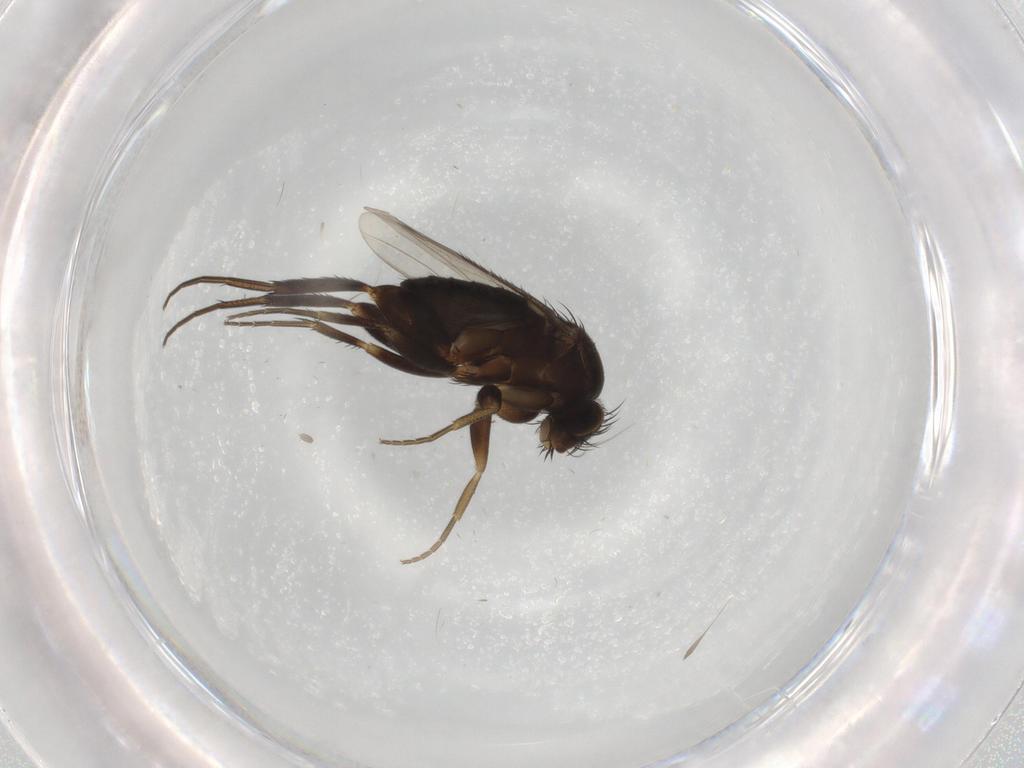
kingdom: Animalia
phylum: Arthropoda
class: Insecta
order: Diptera
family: Phoridae
